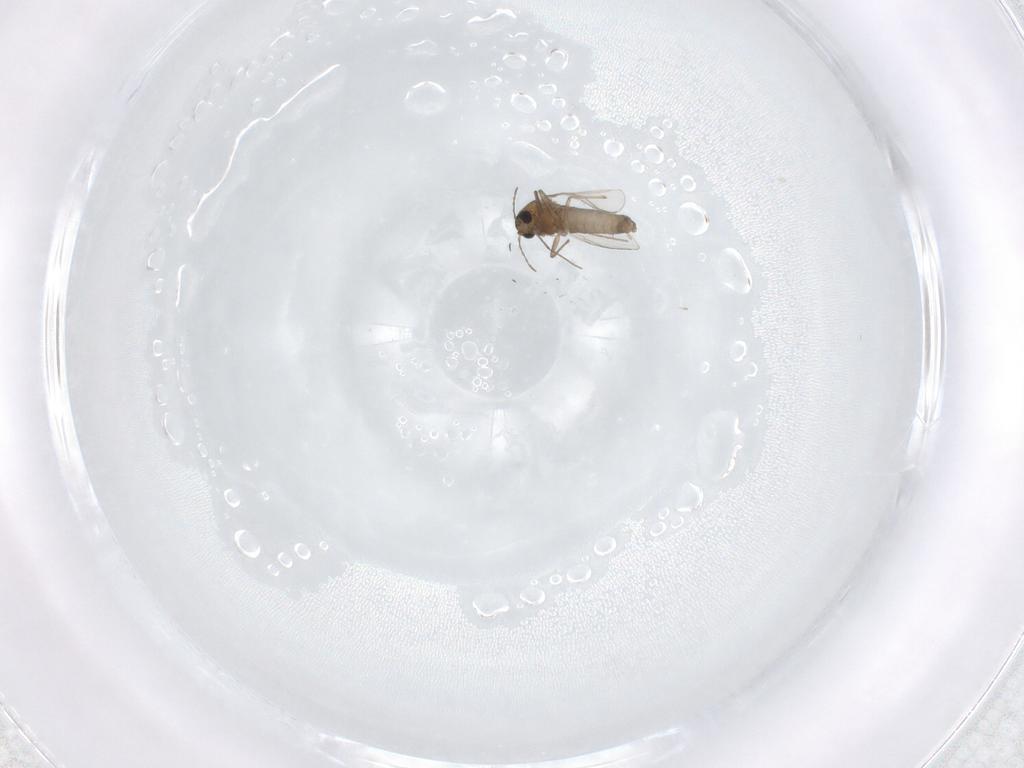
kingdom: Animalia
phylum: Arthropoda
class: Insecta
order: Diptera
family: Chironomidae
